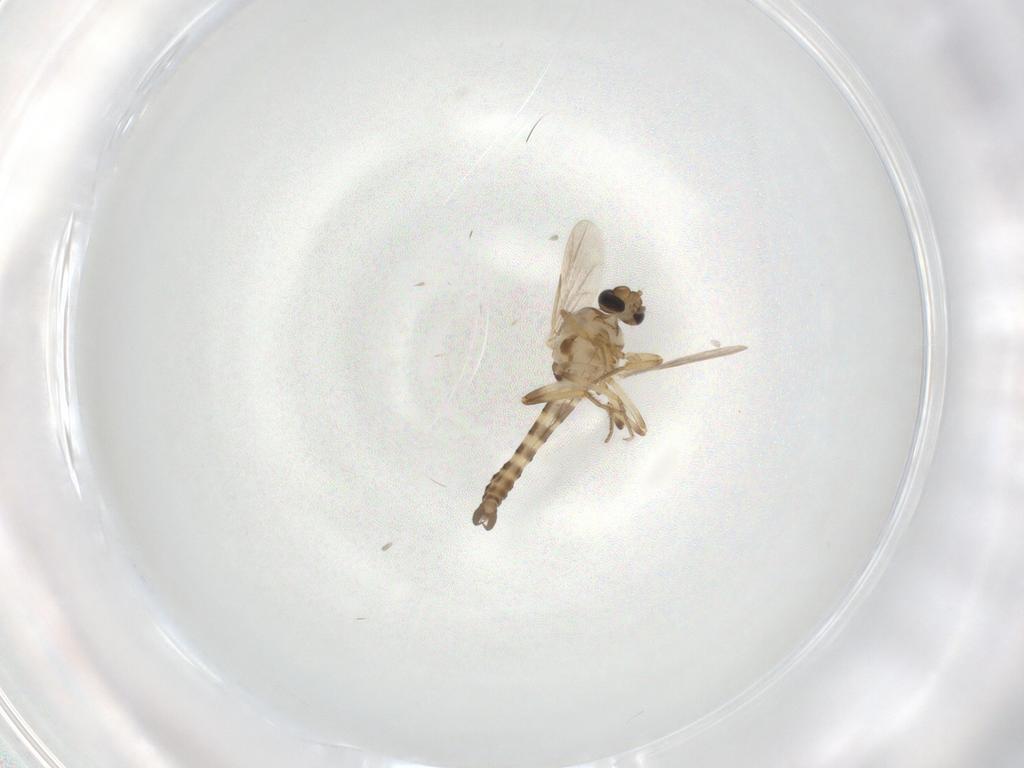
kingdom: Animalia
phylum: Arthropoda
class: Insecta
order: Diptera
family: Ceratopogonidae
